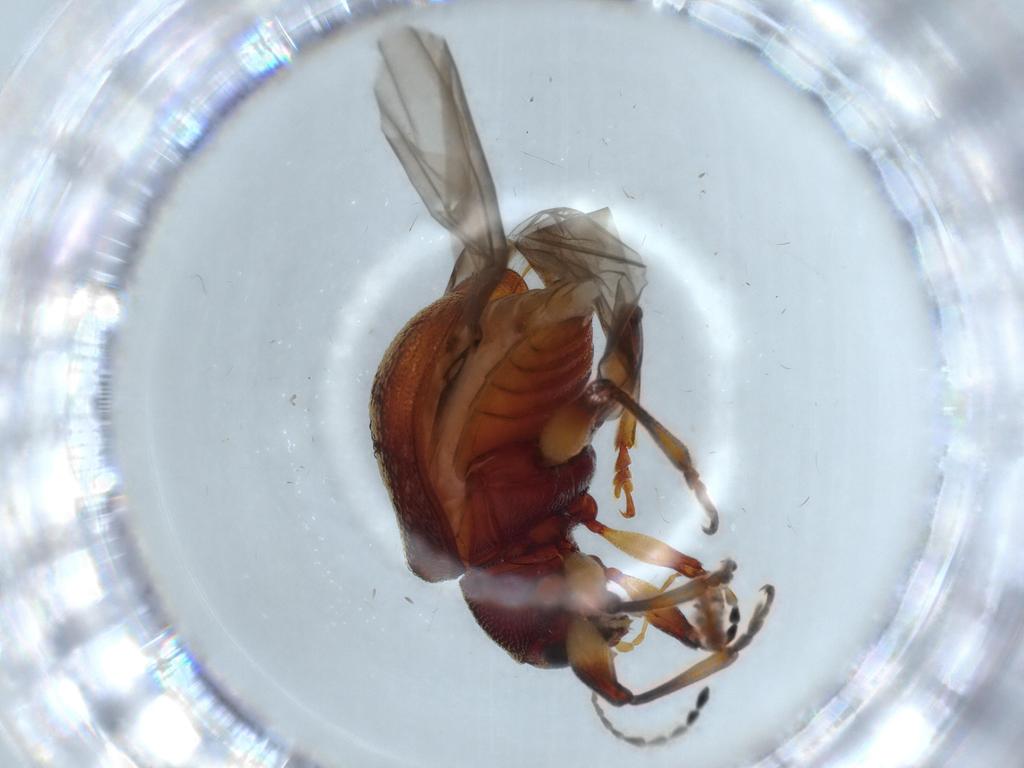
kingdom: Animalia
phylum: Arthropoda
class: Insecta
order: Coleoptera
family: Chrysomelidae
